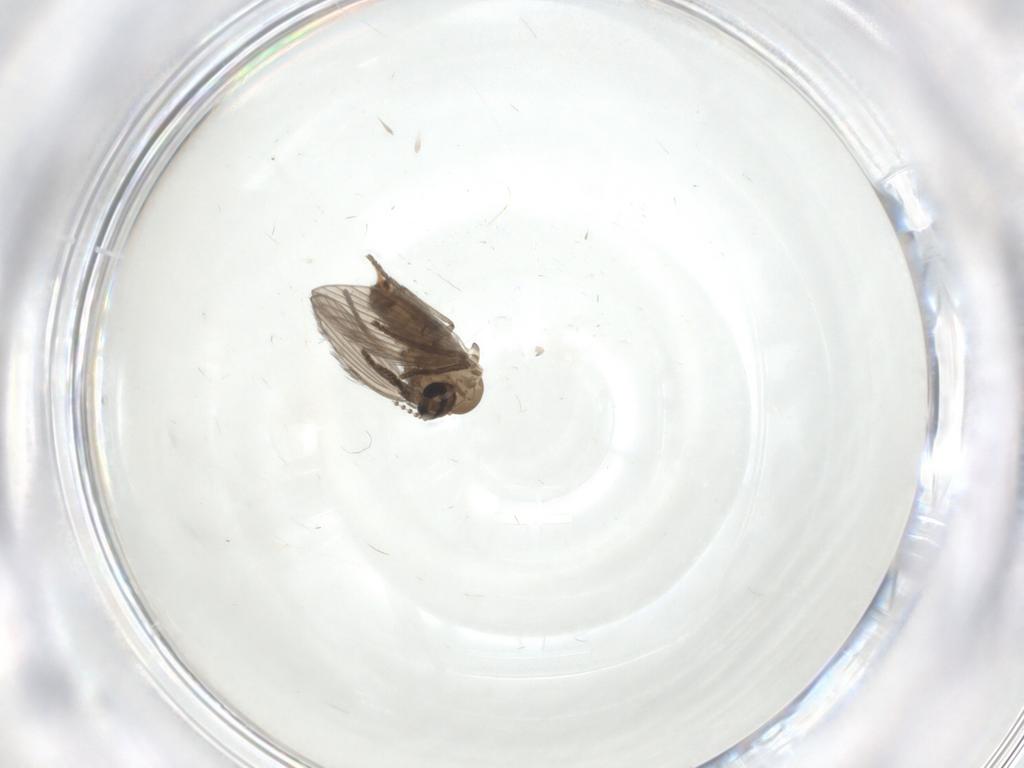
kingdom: Animalia
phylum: Arthropoda
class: Insecta
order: Diptera
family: Psychodidae
